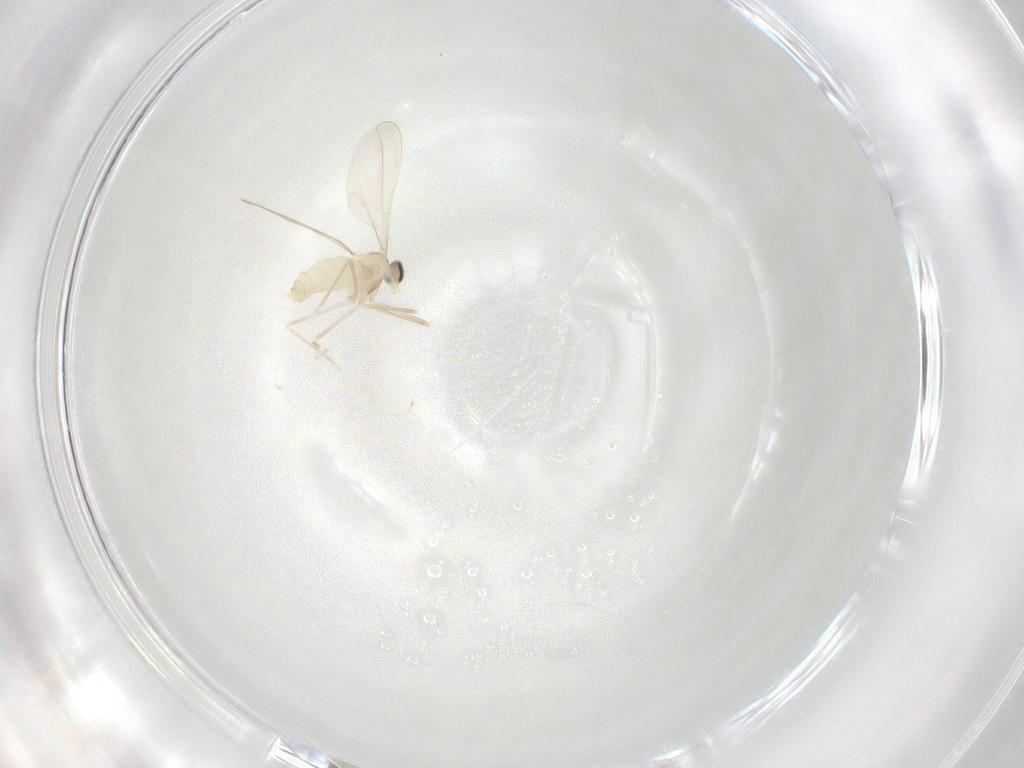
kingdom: Animalia
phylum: Arthropoda
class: Insecta
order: Diptera
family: Cecidomyiidae
